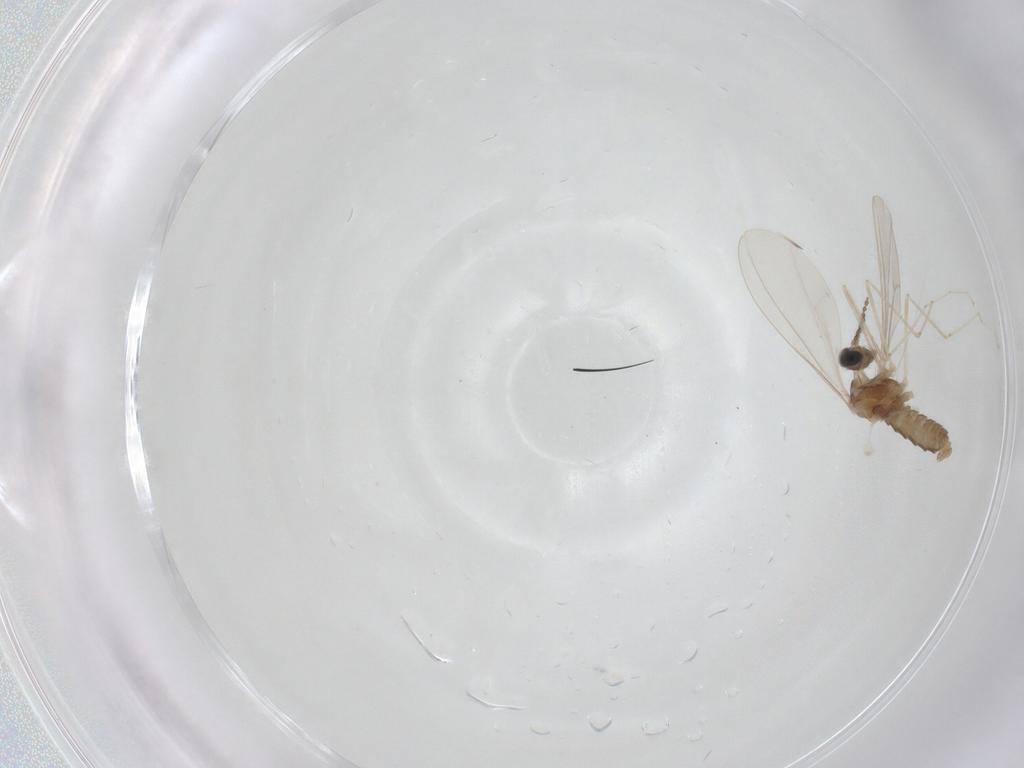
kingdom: Animalia
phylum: Arthropoda
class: Insecta
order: Diptera
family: Cecidomyiidae
